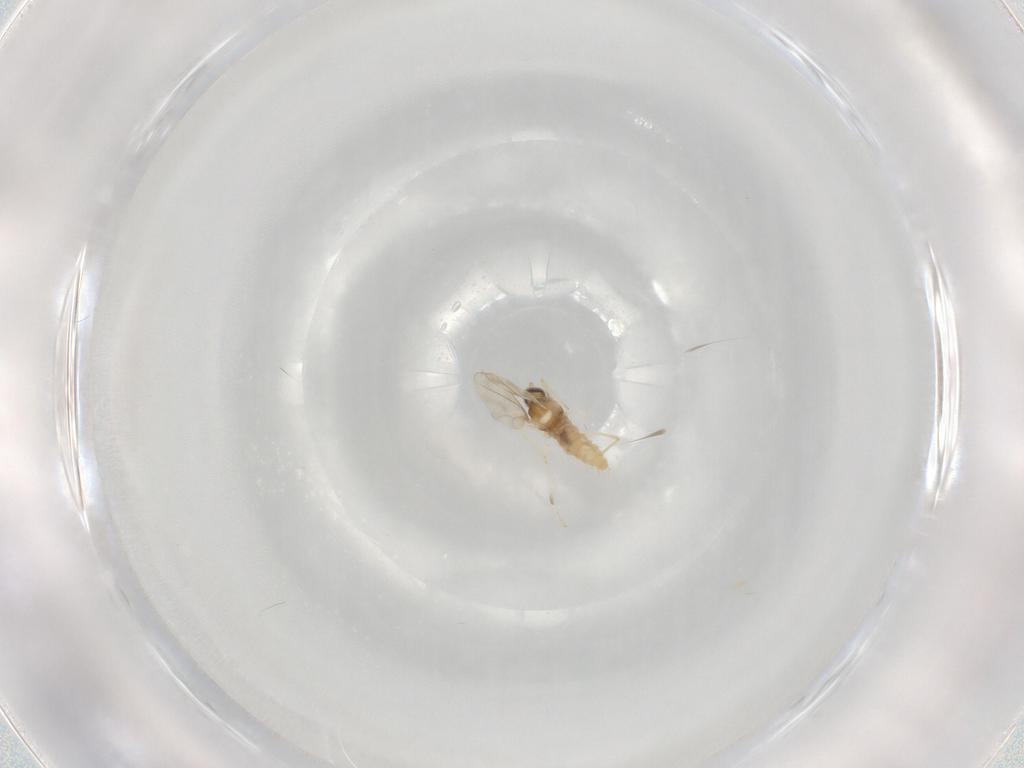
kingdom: Animalia
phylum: Arthropoda
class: Insecta
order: Diptera
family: Cecidomyiidae
